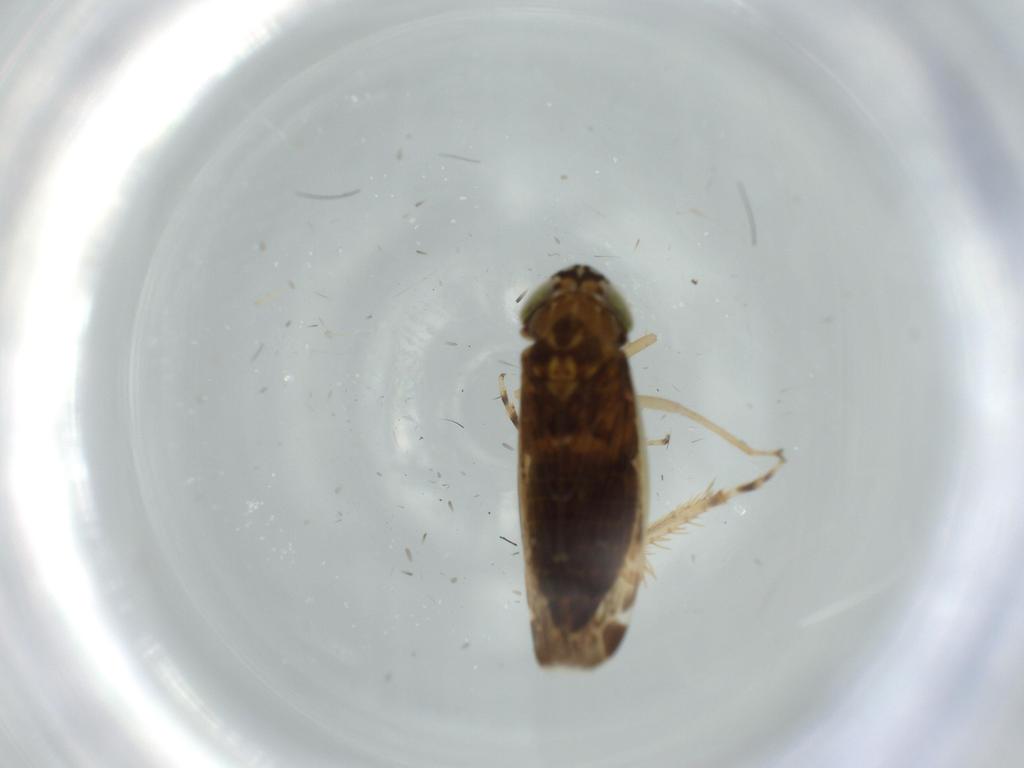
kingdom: Animalia
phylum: Arthropoda
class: Insecta
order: Hemiptera
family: Cicadellidae
